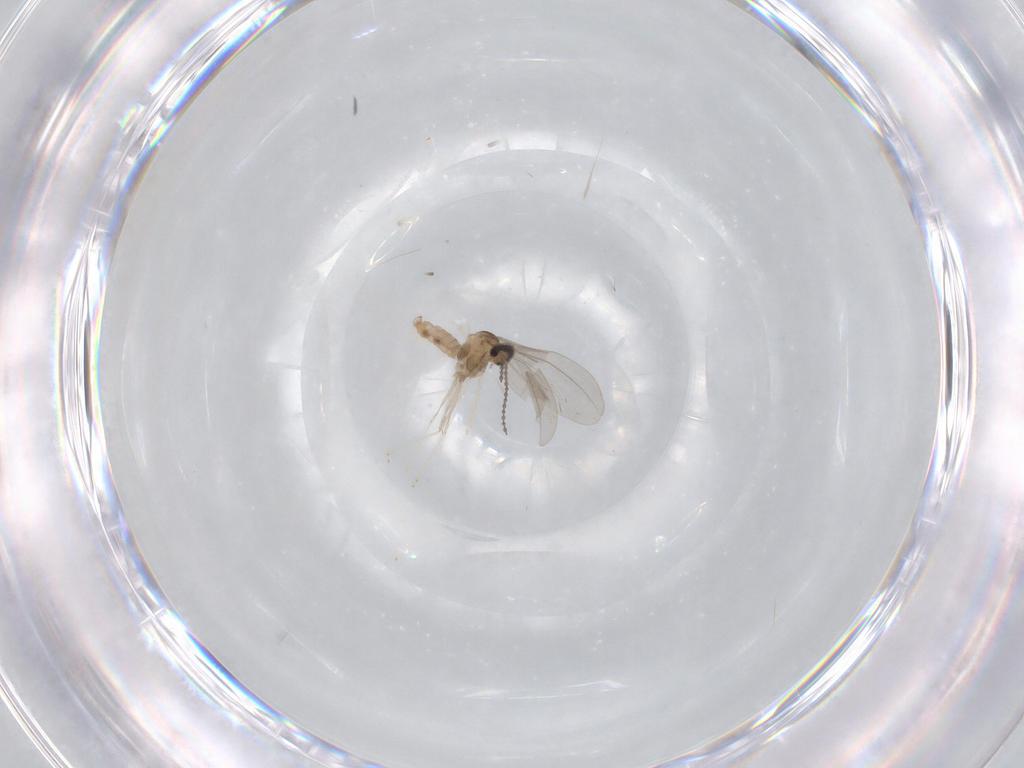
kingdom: Animalia
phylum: Arthropoda
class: Insecta
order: Diptera
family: Cecidomyiidae
